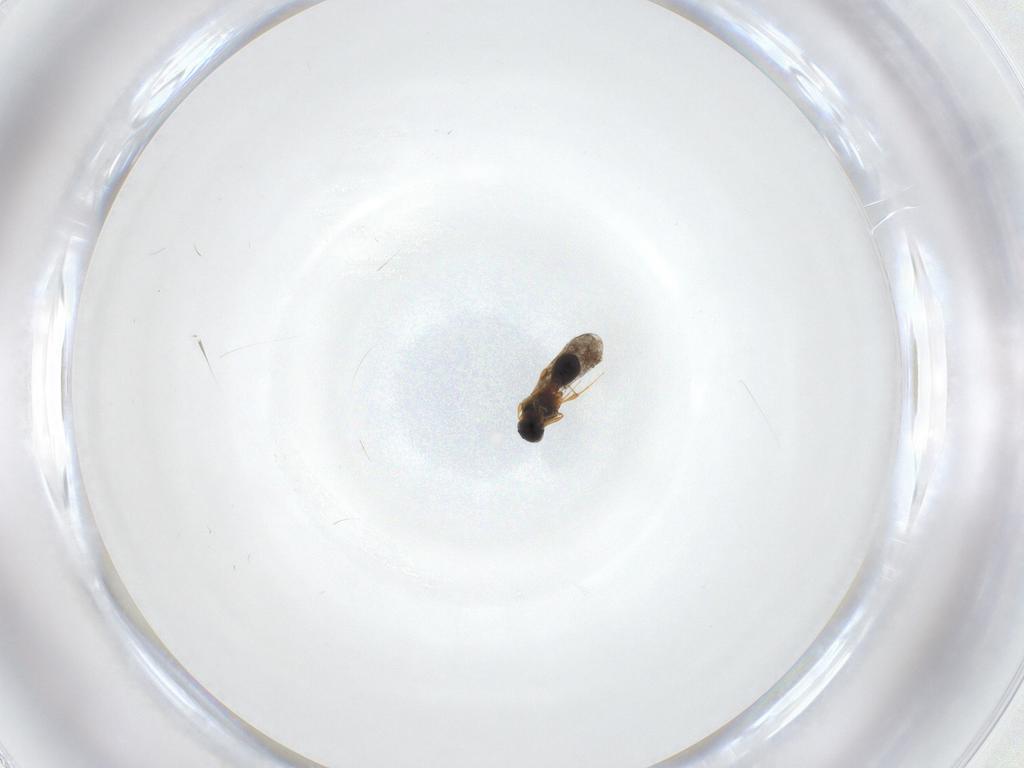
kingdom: Animalia
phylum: Arthropoda
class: Insecta
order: Hymenoptera
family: Platygastridae
